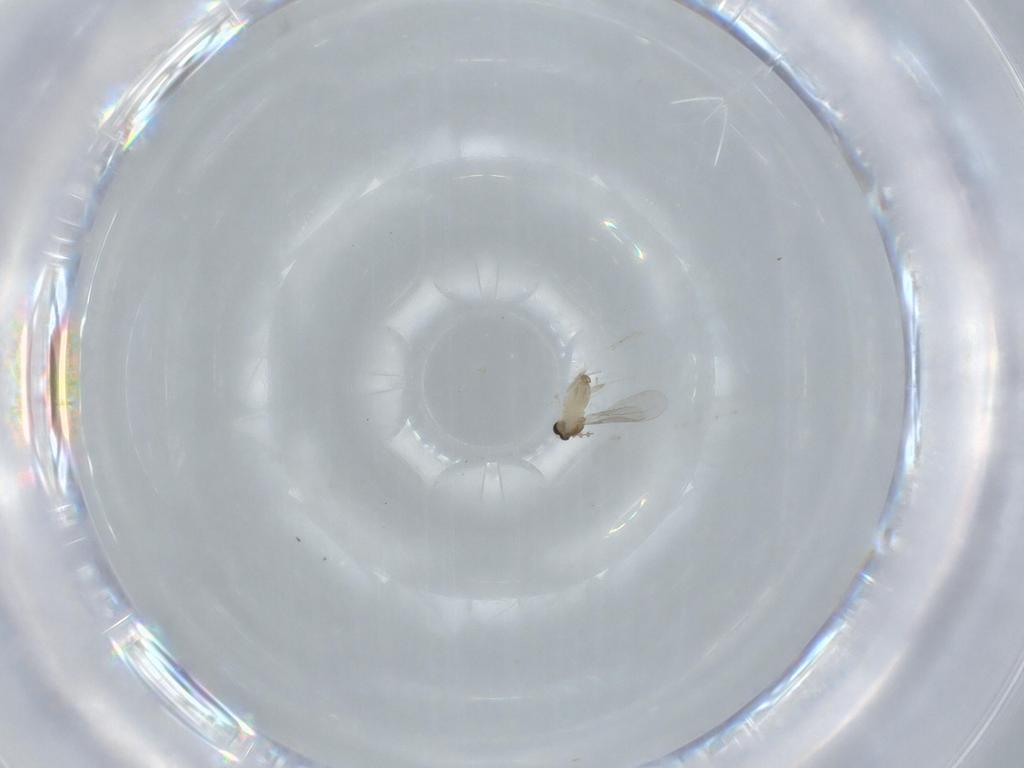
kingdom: Animalia
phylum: Arthropoda
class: Insecta
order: Diptera
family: Cecidomyiidae
